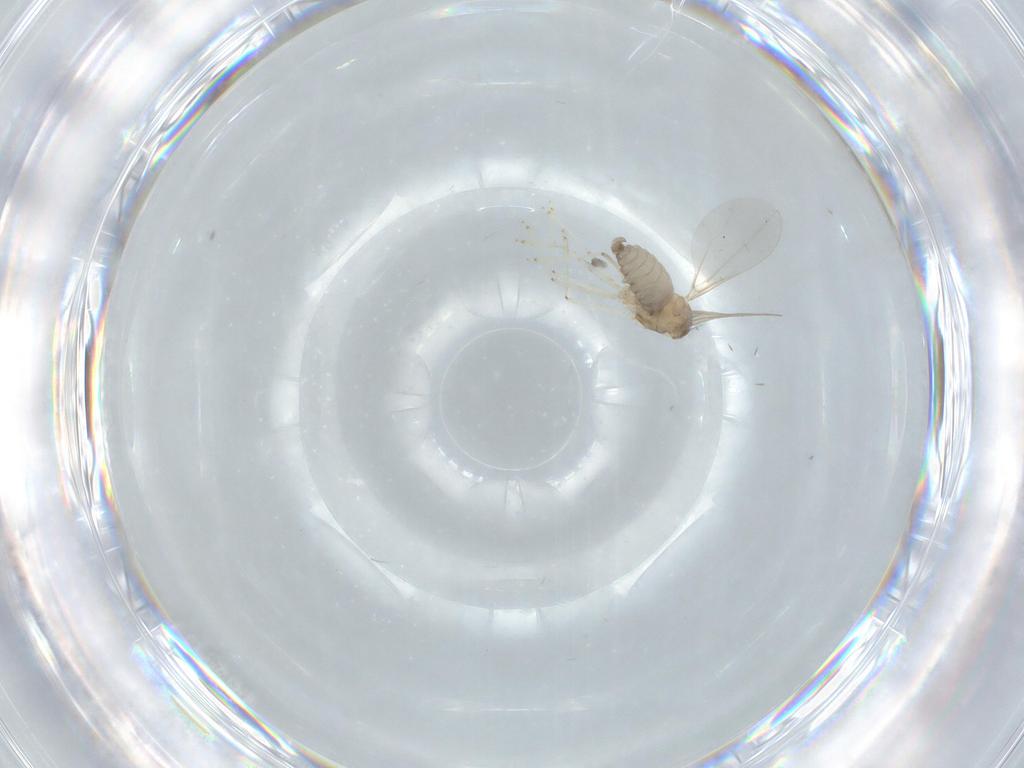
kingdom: Animalia
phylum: Arthropoda
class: Insecta
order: Diptera
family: Cecidomyiidae
